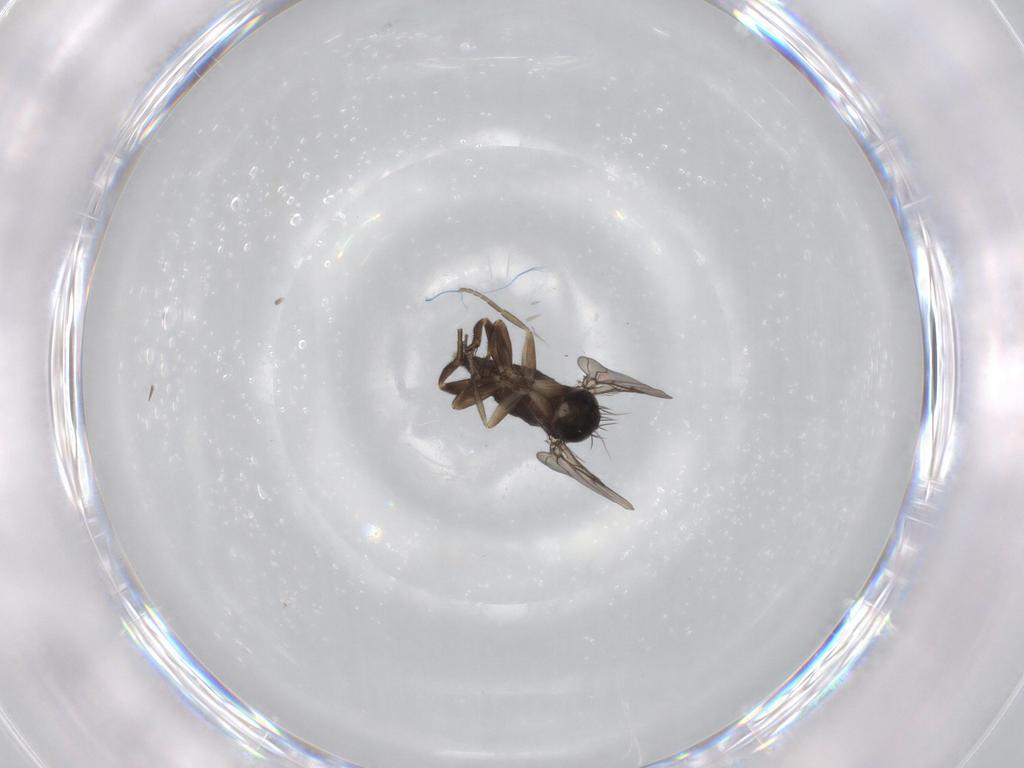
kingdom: Animalia
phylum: Arthropoda
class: Insecta
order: Diptera
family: Phoridae
